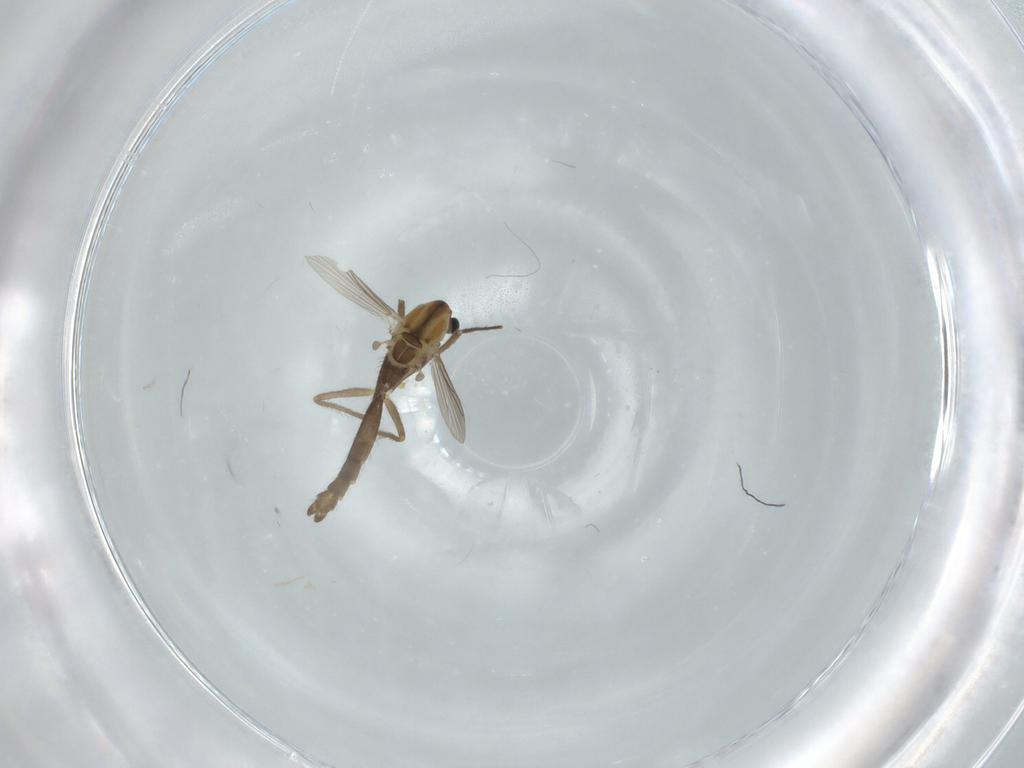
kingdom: Animalia
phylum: Arthropoda
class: Insecta
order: Diptera
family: Chironomidae
